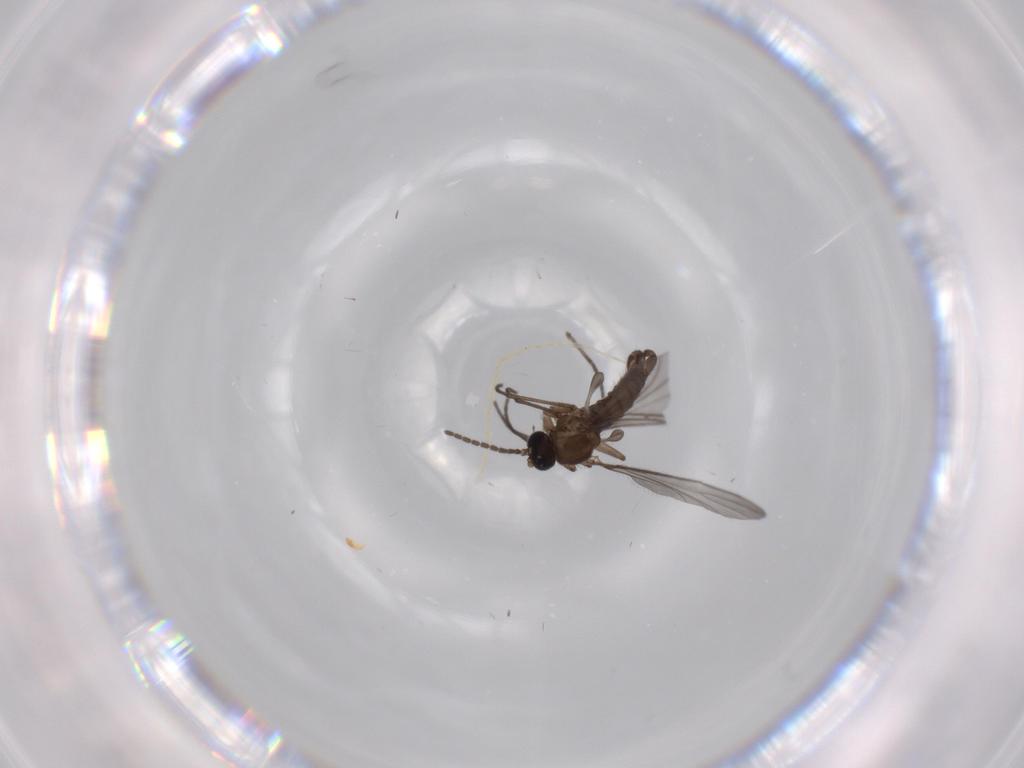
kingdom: Animalia
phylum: Arthropoda
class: Insecta
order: Diptera
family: Sciaridae
